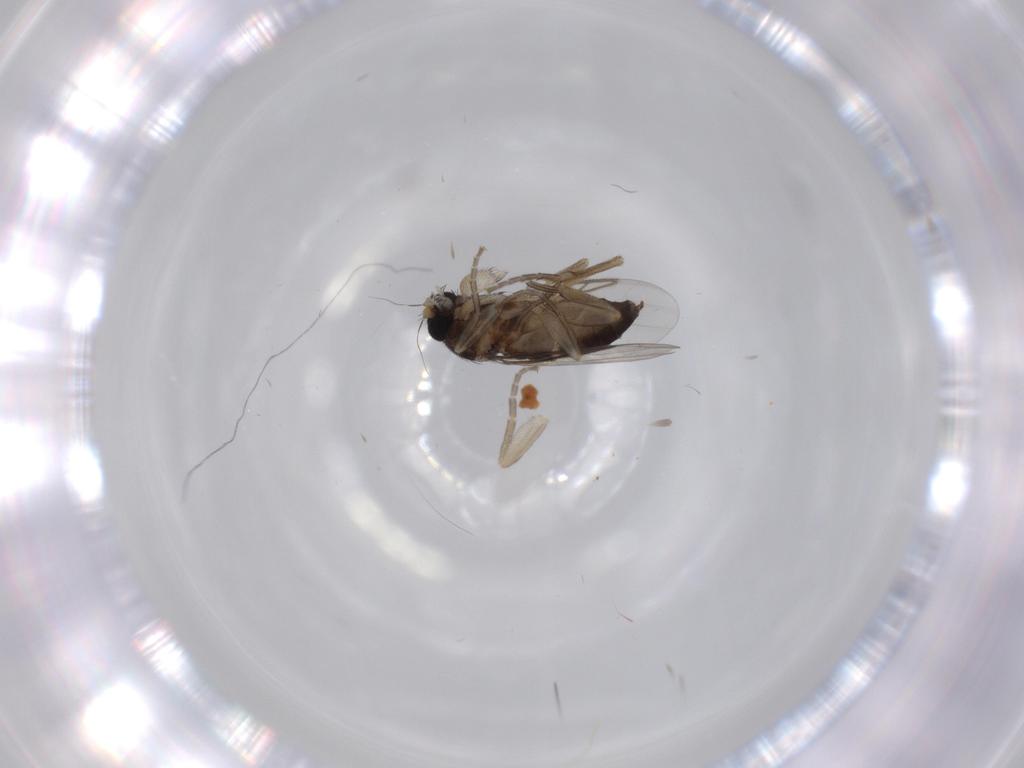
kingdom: Animalia
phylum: Arthropoda
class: Insecta
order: Diptera
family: Phoridae
